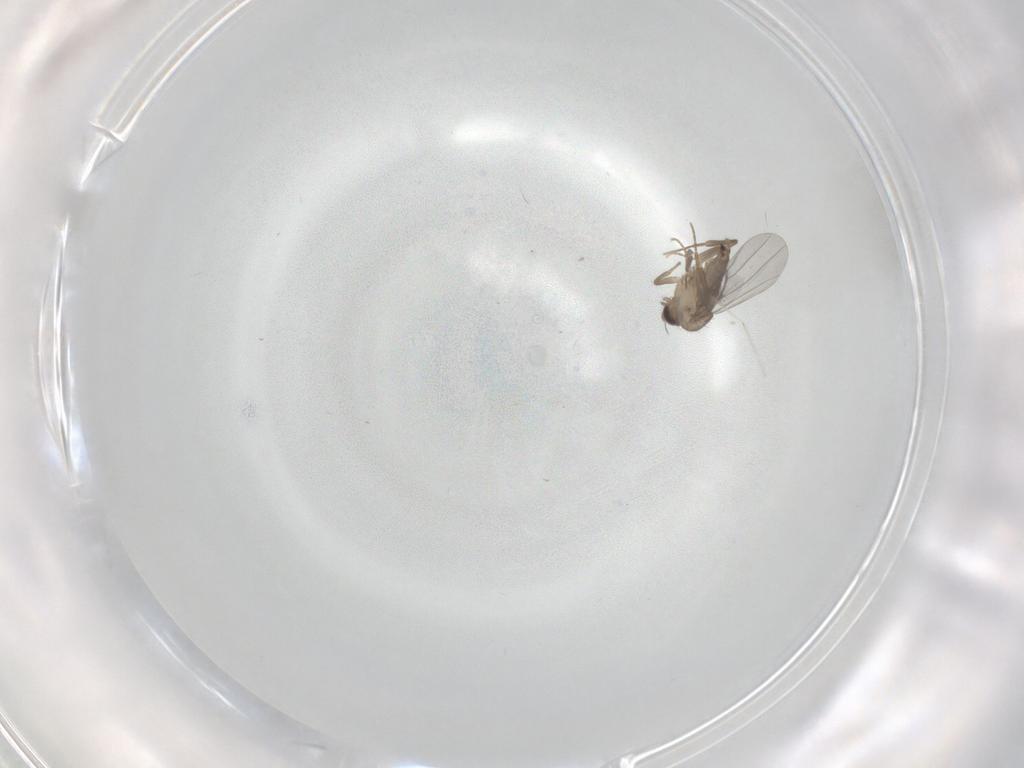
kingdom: Animalia
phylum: Arthropoda
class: Insecta
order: Diptera
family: Cecidomyiidae
